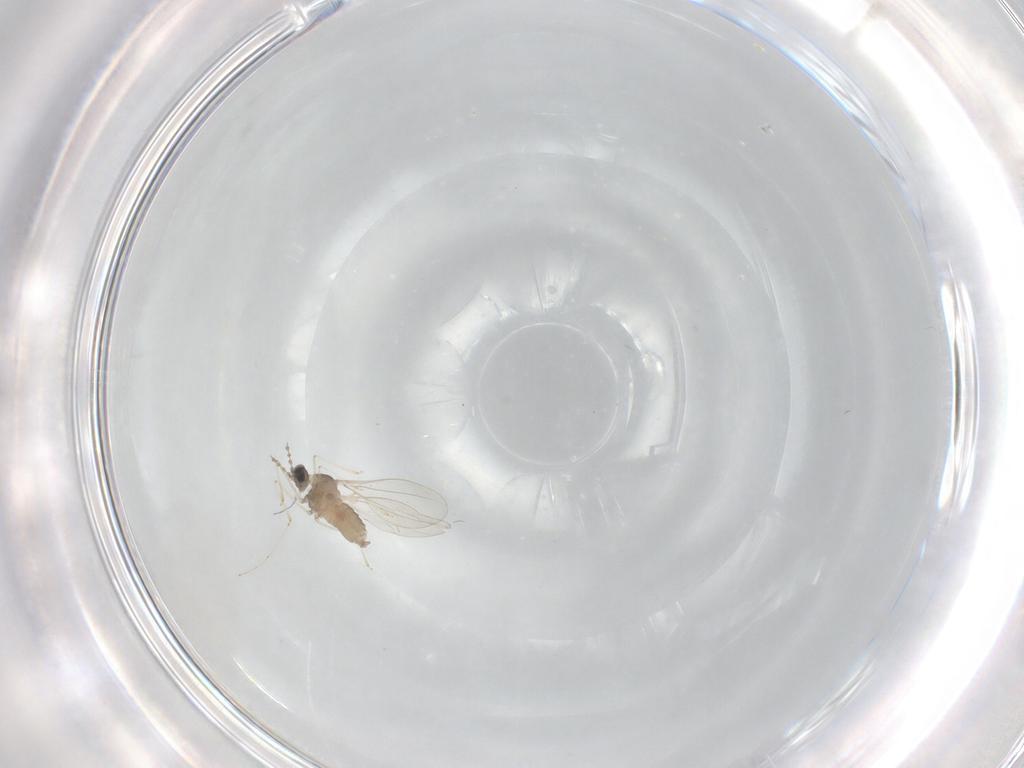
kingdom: Animalia
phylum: Arthropoda
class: Insecta
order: Diptera
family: Cecidomyiidae
